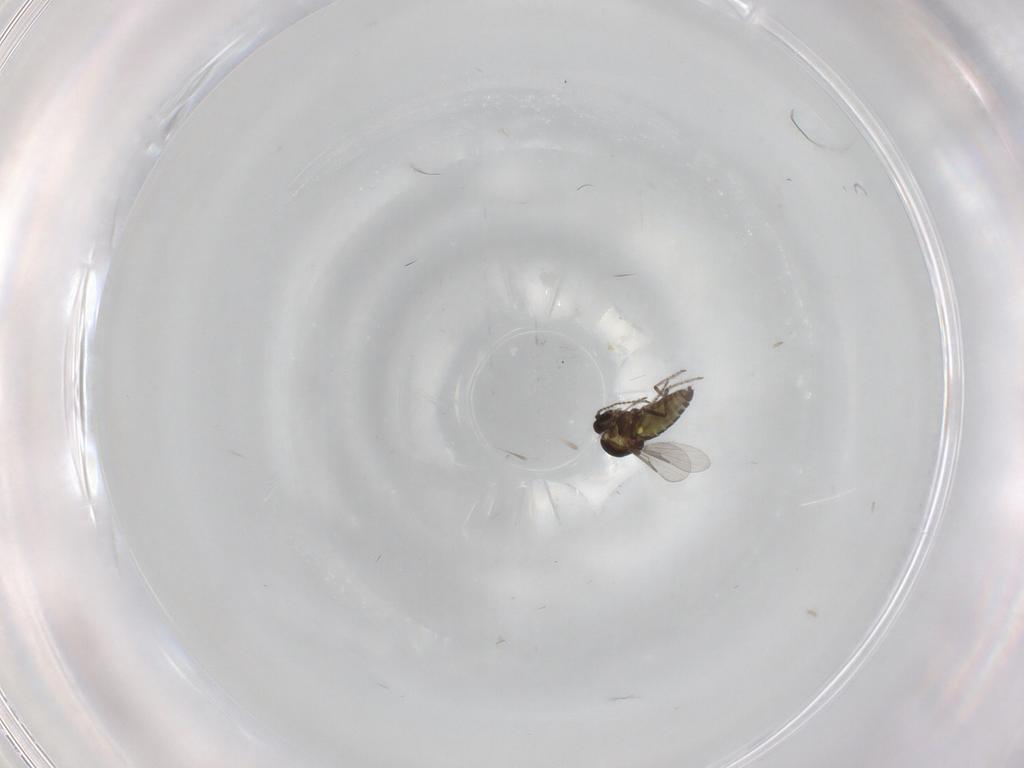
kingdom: Animalia
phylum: Arthropoda
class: Insecta
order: Diptera
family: Ceratopogonidae
